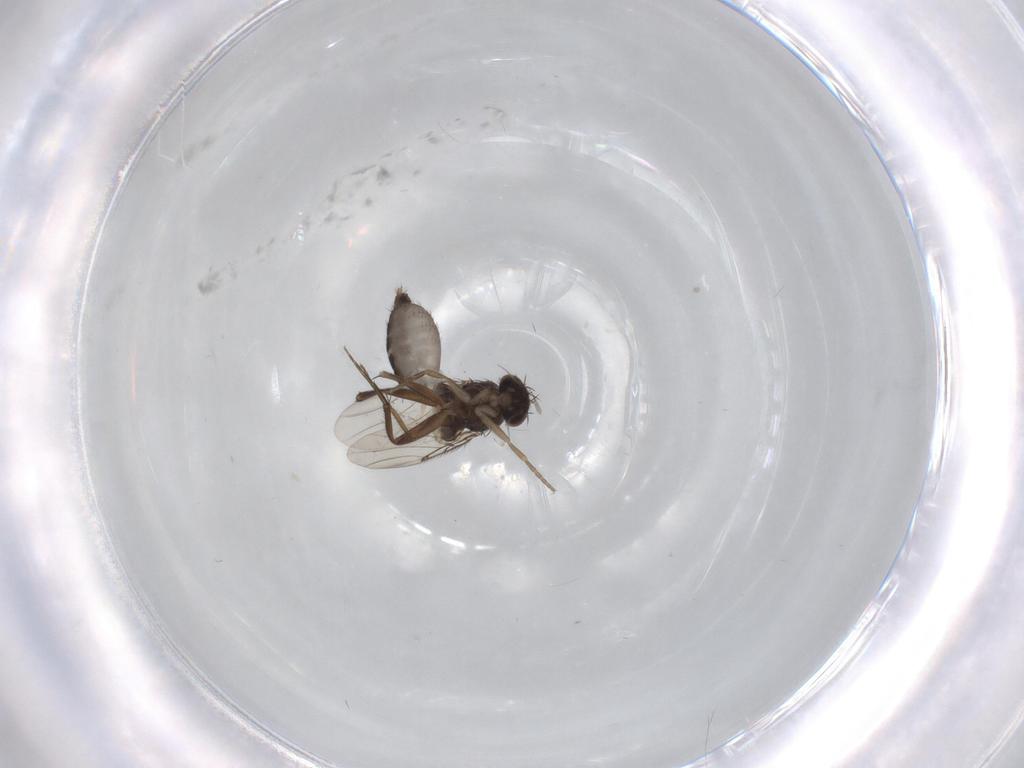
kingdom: Animalia
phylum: Arthropoda
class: Insecta
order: Diptera
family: Phoridae
